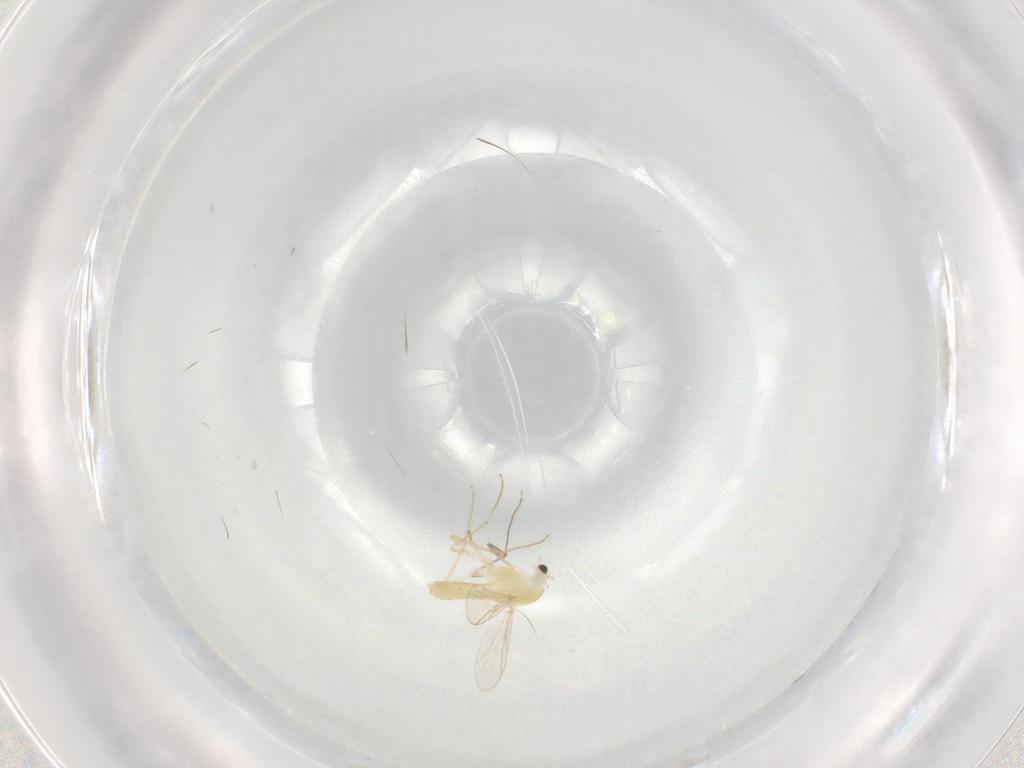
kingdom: Animalia
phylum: Arthropoda
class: Insecta
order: Diptera
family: Chironomidae
